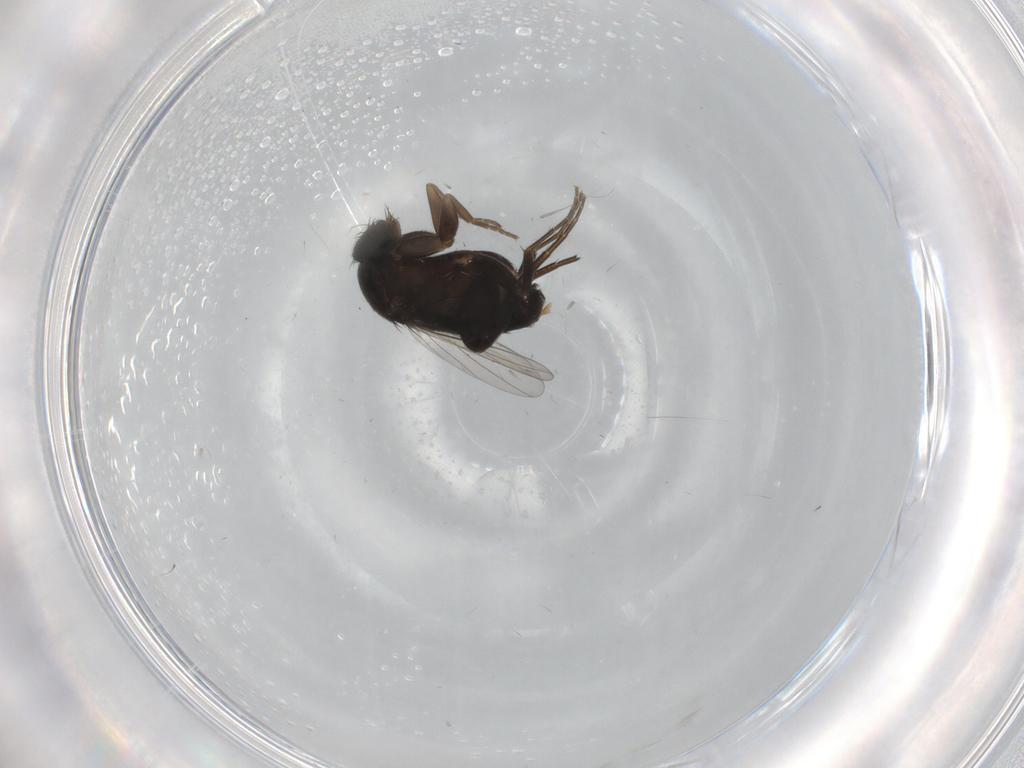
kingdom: Animalia
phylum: Arthropoda
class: Insecta
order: Diptera
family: Phoridae
